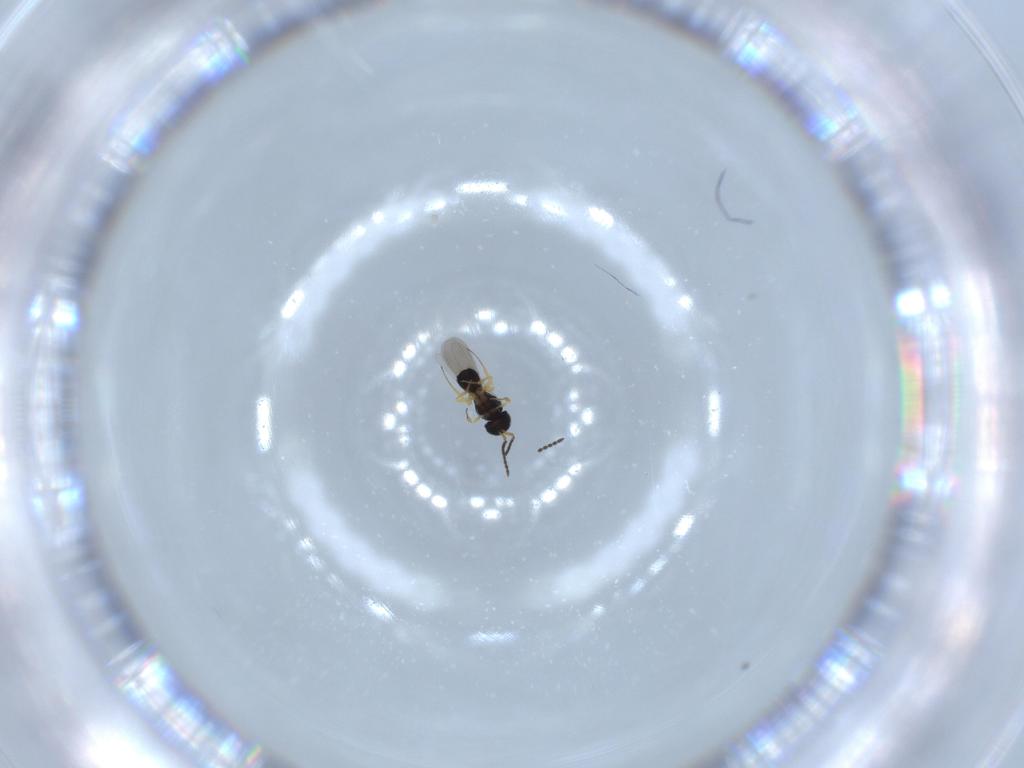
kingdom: Animalia
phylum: Arthropoda
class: Insecta
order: Hymenoptera
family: Scelionidae
